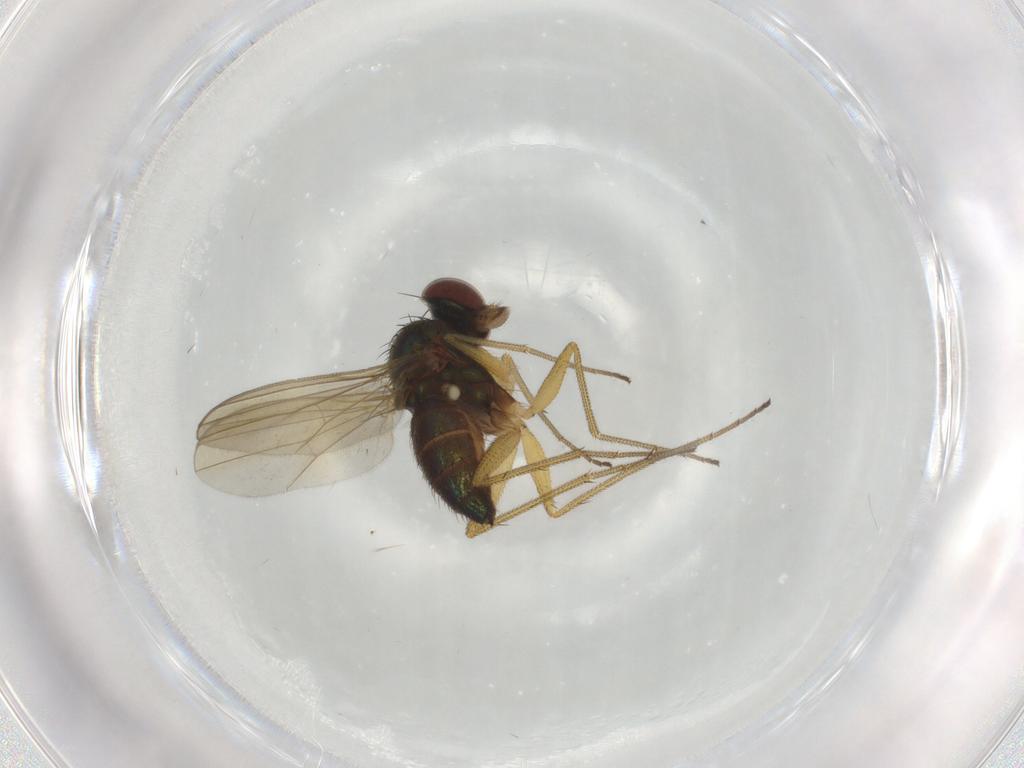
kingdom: Animalia
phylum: Arthropoda
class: Insecta
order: Diptera
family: Dolichopodidae
